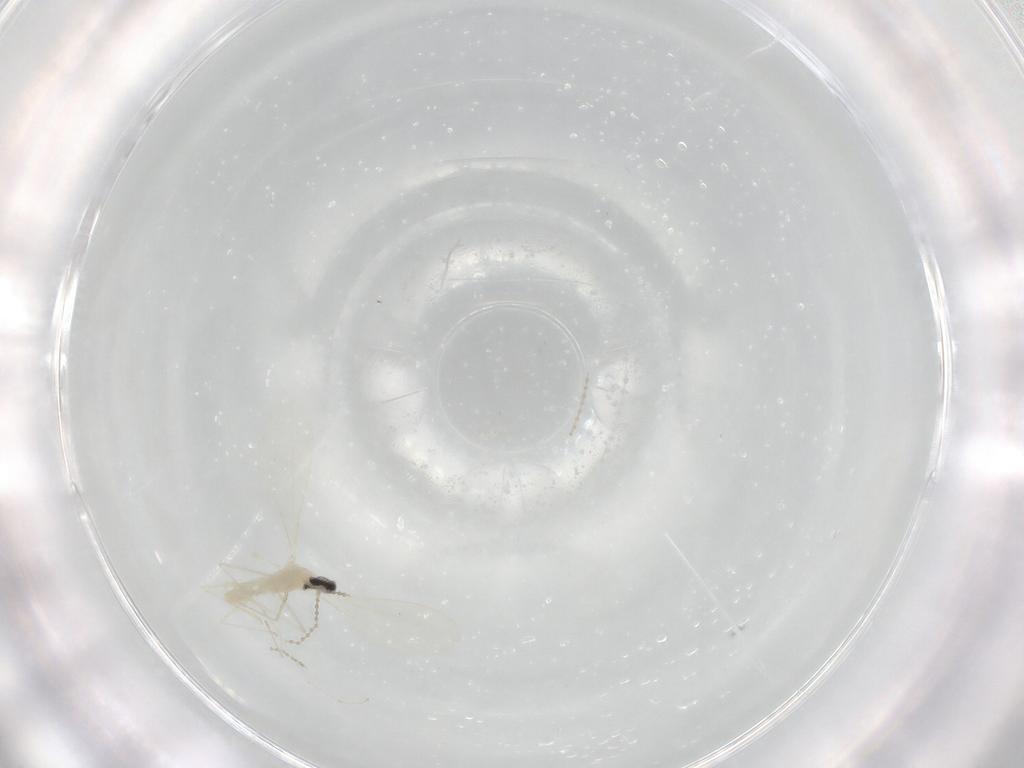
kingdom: Animalia
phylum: Arthropoda
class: Insecta
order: Diptera
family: Cecidomyiidae
